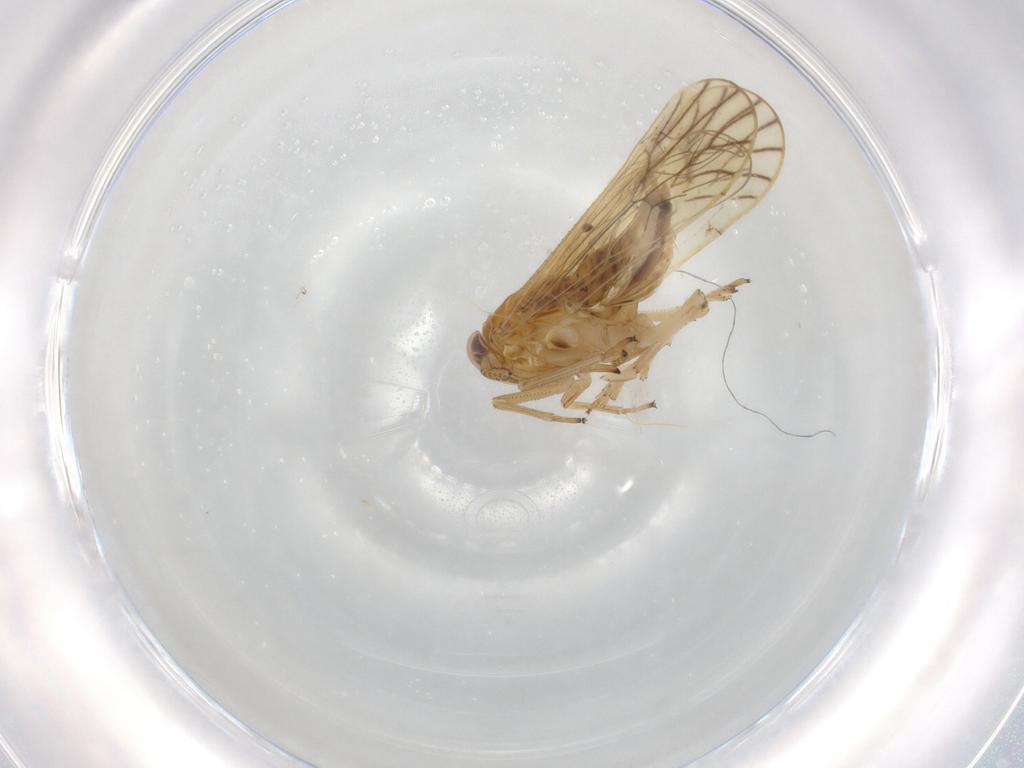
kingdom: Animalia
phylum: Arthropoda
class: Insecta
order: Hemiptera
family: Delphacidae
